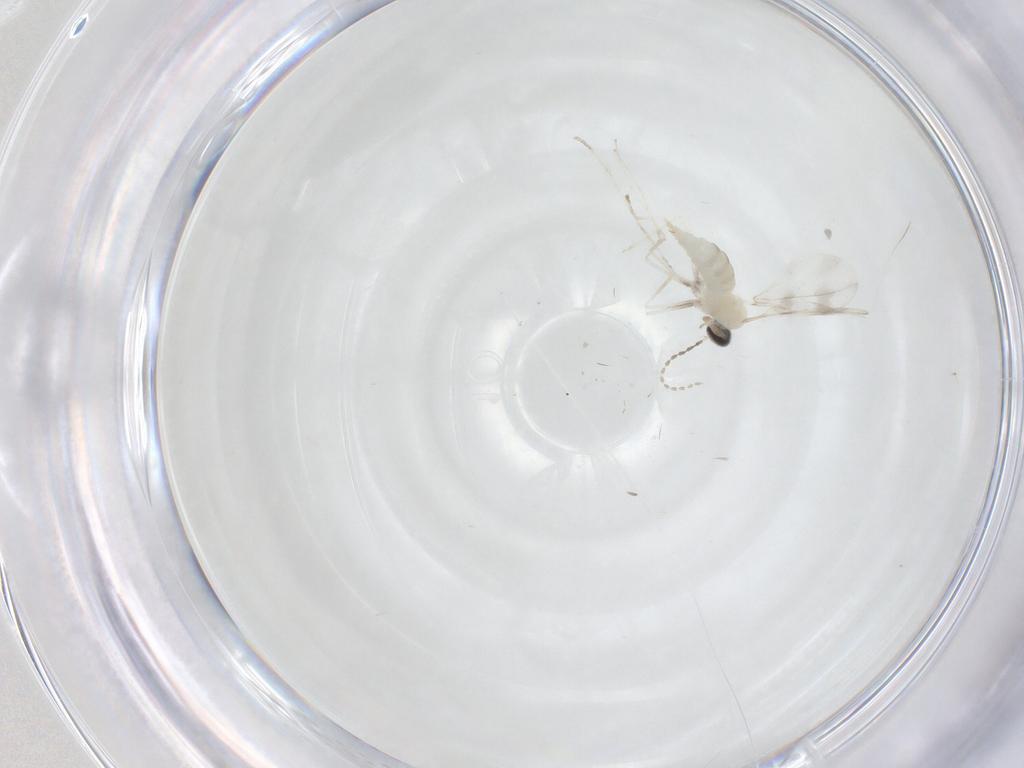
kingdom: Animalia
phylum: Arthropoda
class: Insecta
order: Diptera
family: Cecidomyiidae
